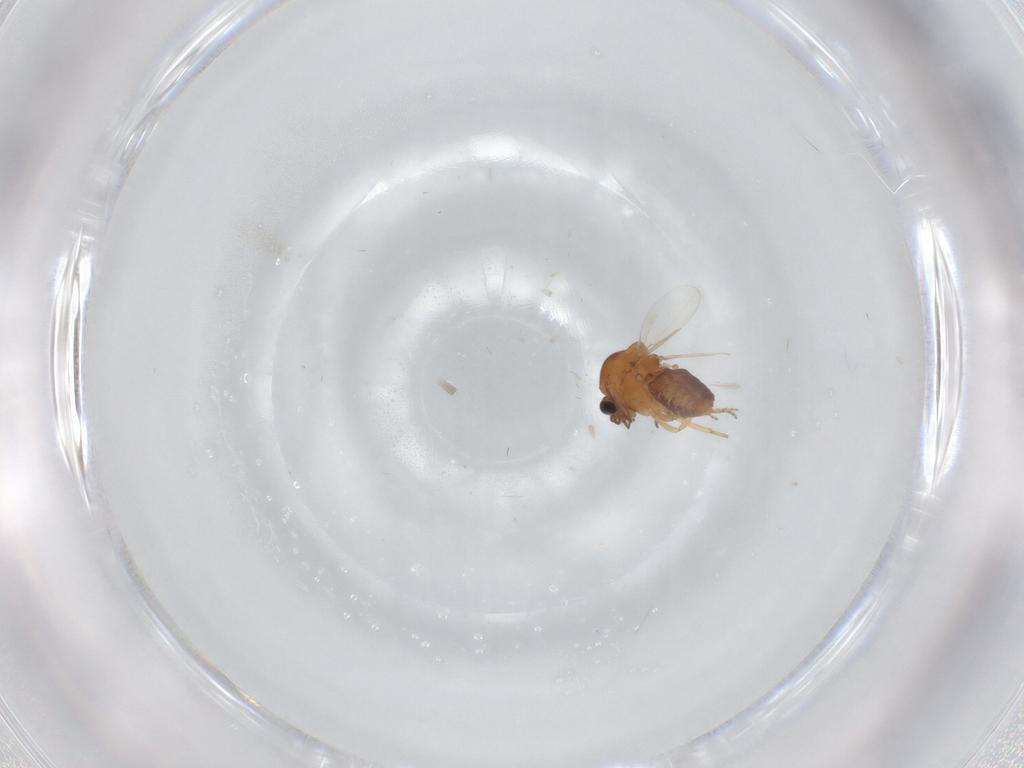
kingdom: Animalia
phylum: Arthropoda
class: Insecta
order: Diptera
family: Ceratopogonidae
